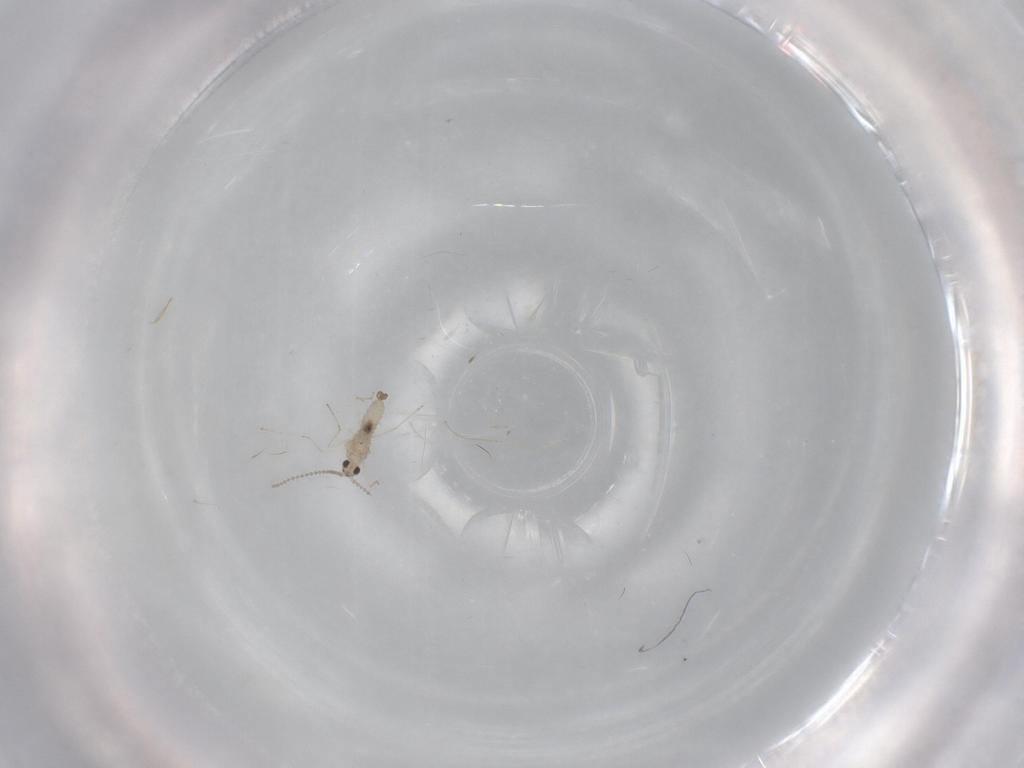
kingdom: Animalia
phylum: Arthropoda
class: Insecta
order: Diptera
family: Cecidomyiidae
